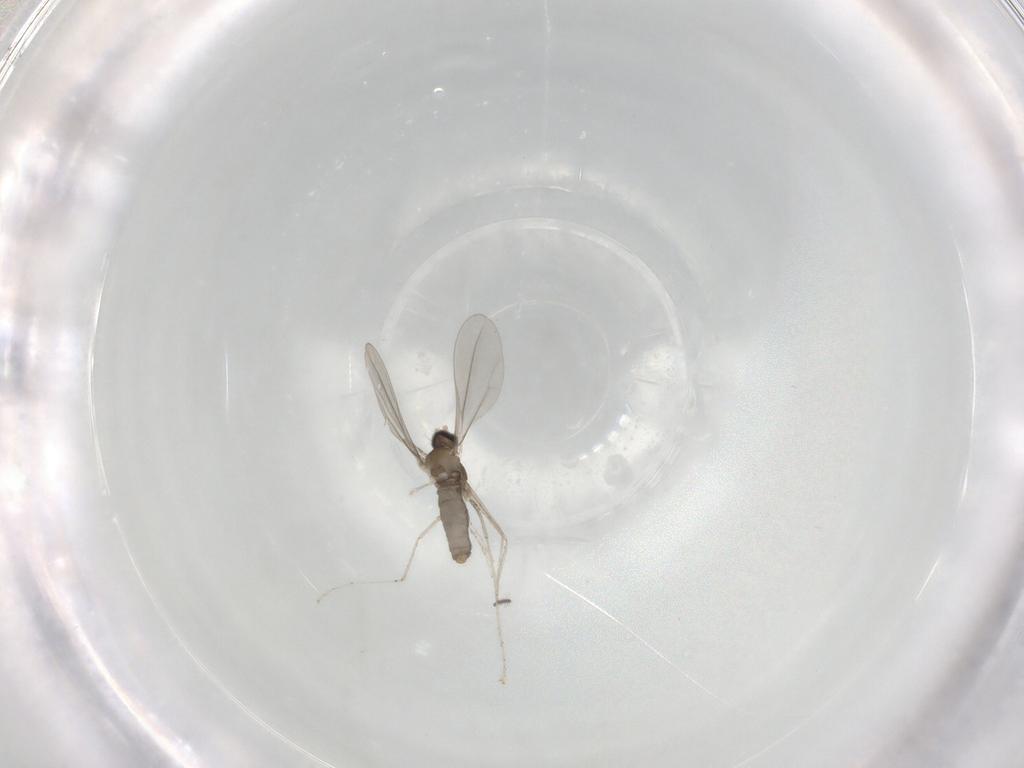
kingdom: Animalia
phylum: Arthropoda
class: Insecta
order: Diptera
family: Cecidomyiidae
